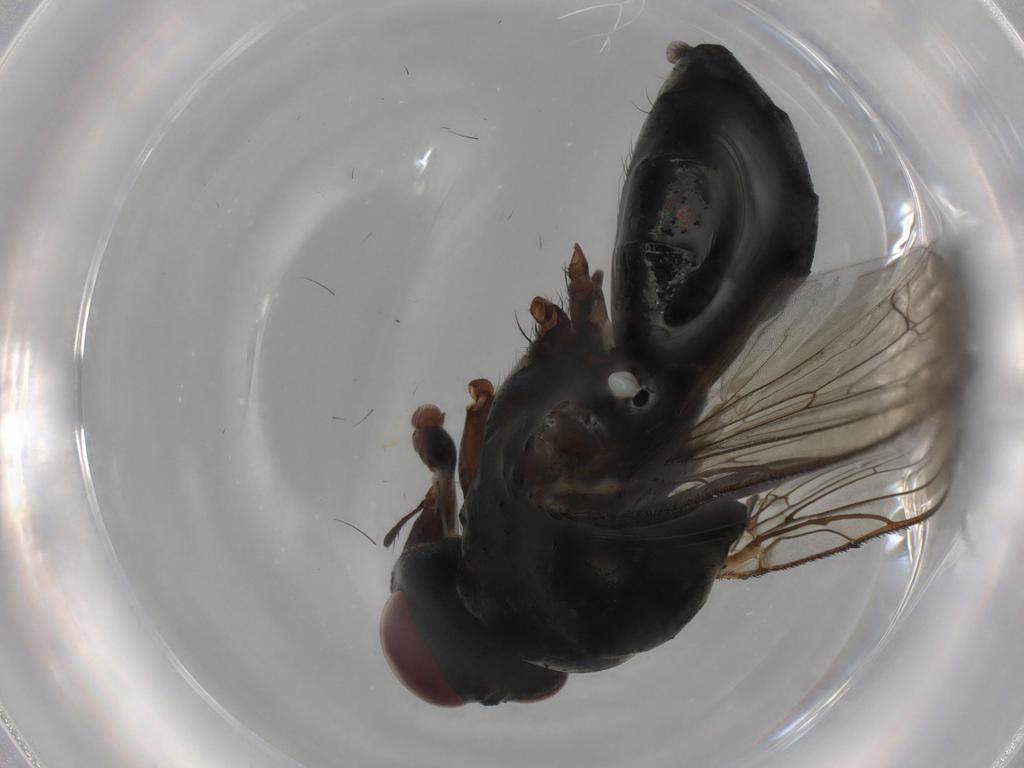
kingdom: Animalia
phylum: Arthropoda
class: Insecta
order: Diptera
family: Limoniidae
